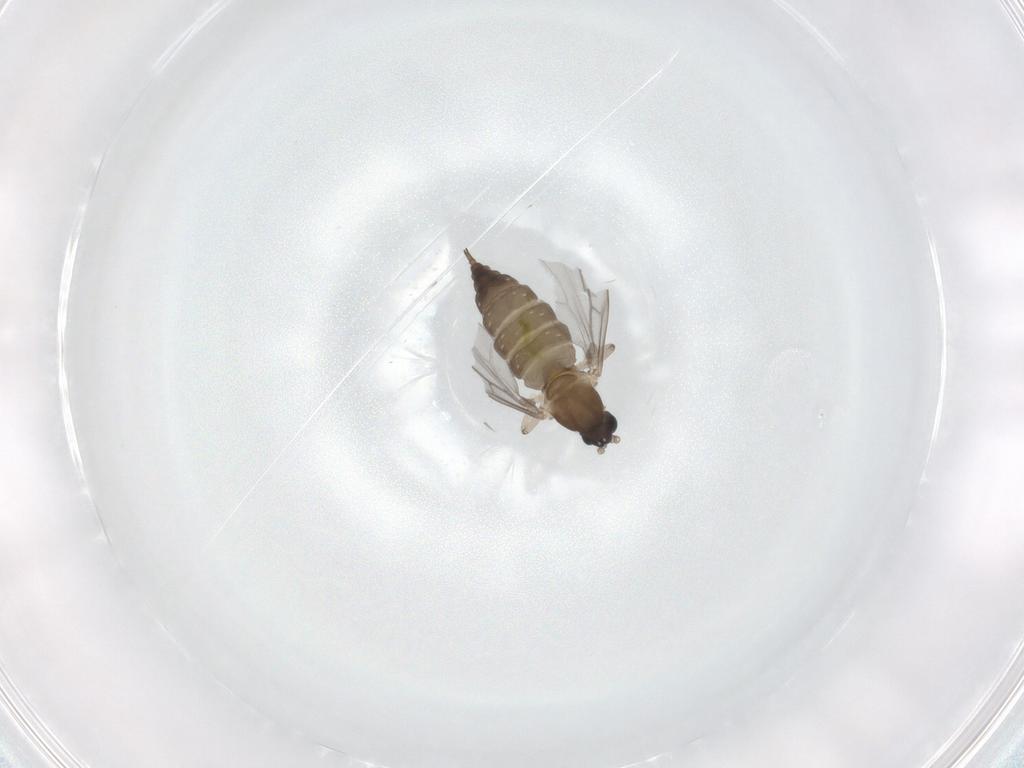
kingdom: Animalia
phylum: Arthropoda
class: Insecta
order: Diptera
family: Cecidomyiidae
